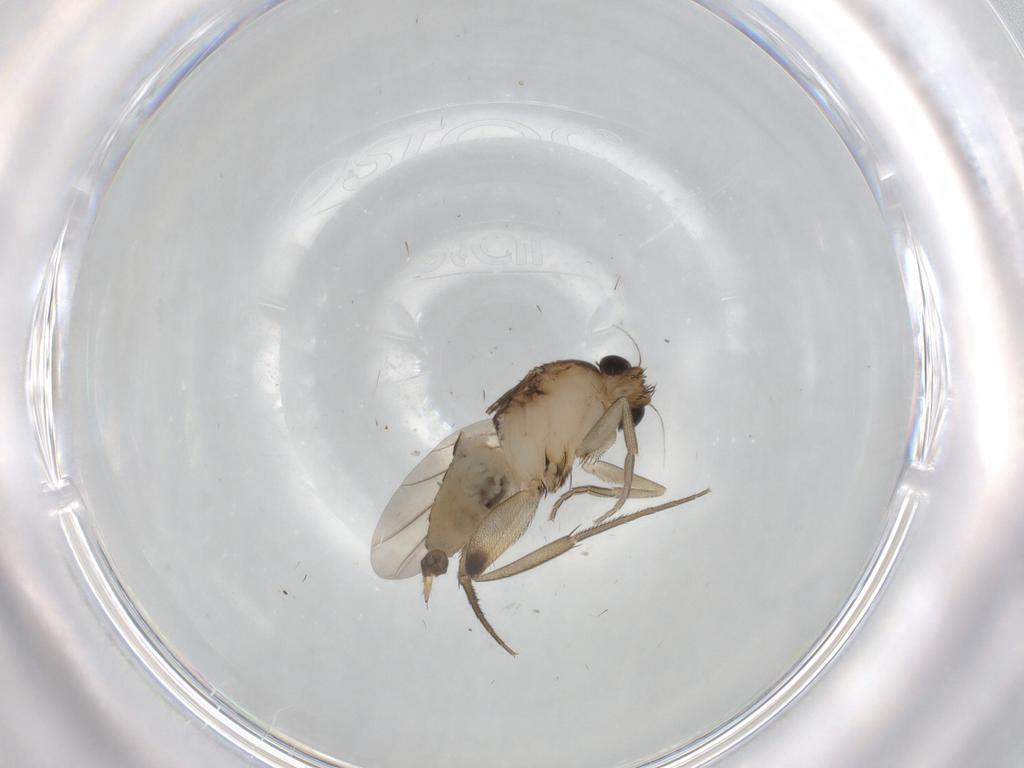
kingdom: Animalia
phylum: Arthropoda
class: Insecta
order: Diptera
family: Phoridae
